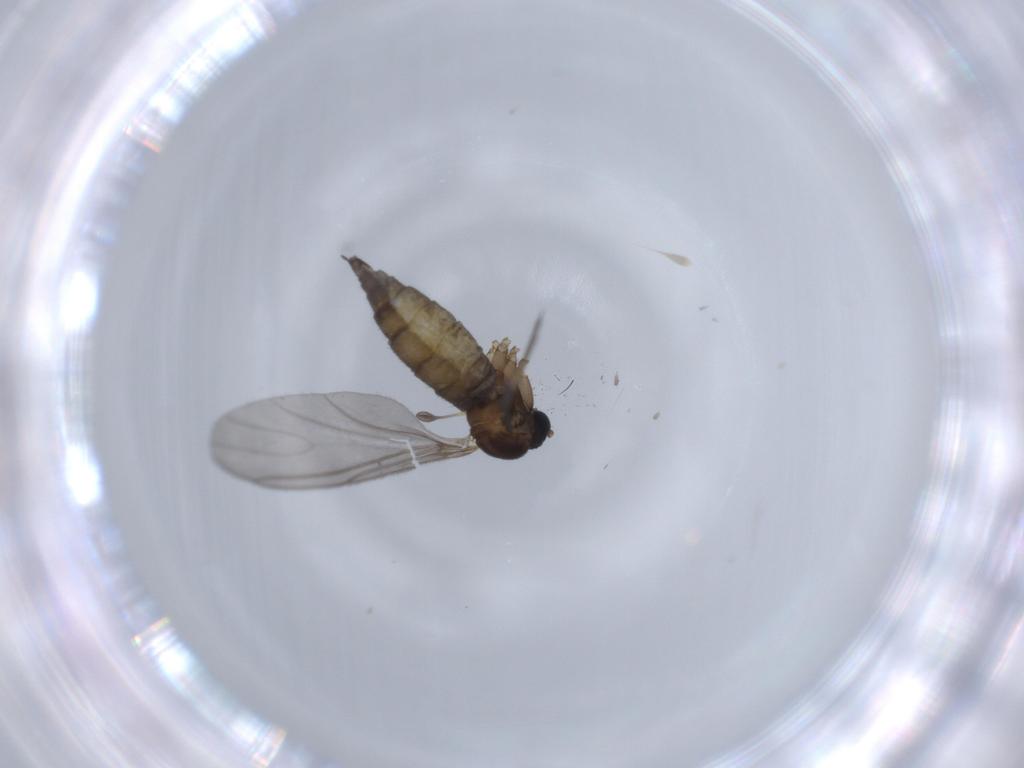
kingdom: Animalia
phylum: Arthropoda
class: Insecta
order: Diptera
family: Sciaridae
